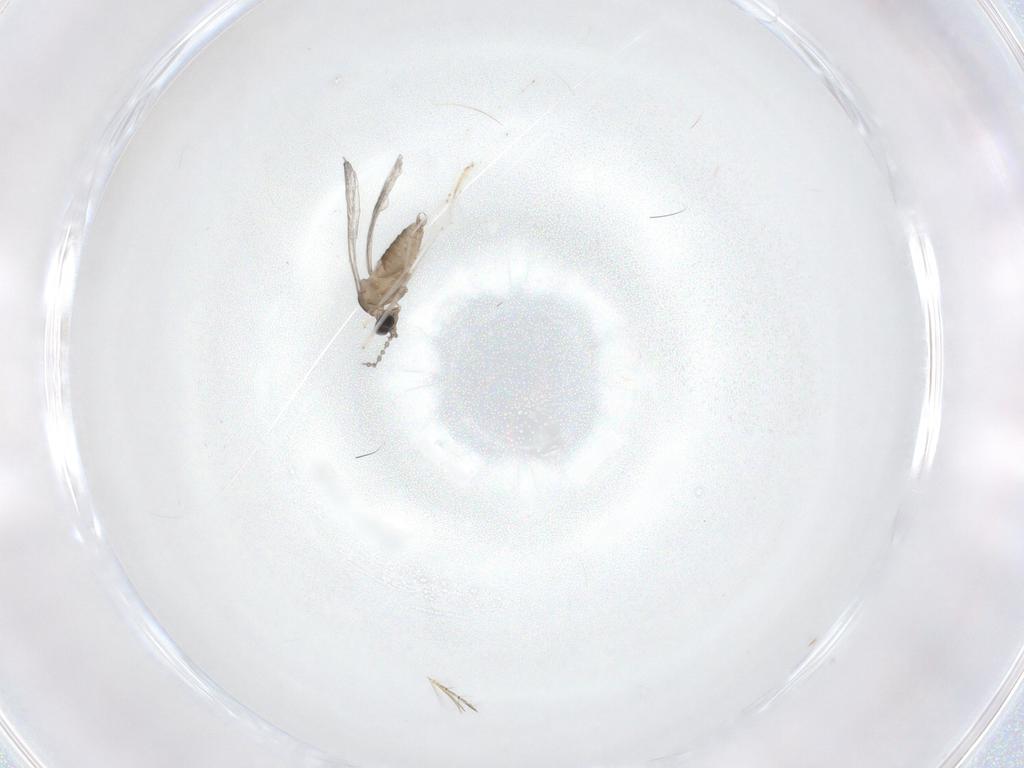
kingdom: Animalia
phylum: Arthropoda
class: Insecta
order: Diptera
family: Cecidomyiidae
